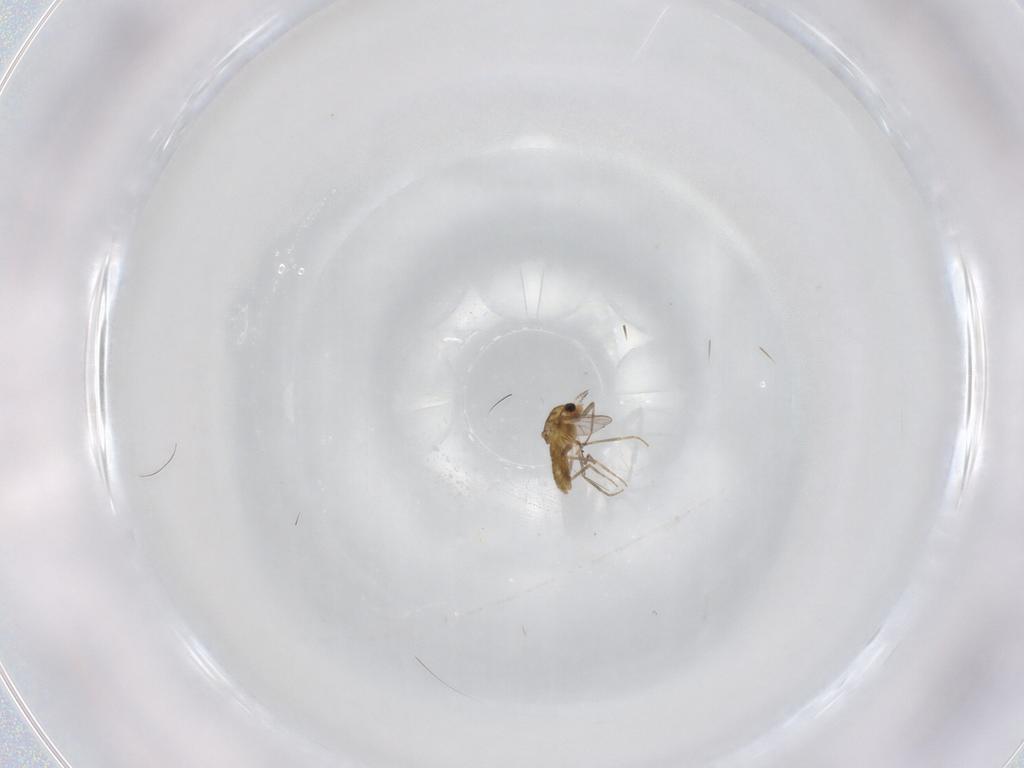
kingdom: Animalia
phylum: Arthropoda
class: Insecta
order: Diptera
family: Chironomidae
